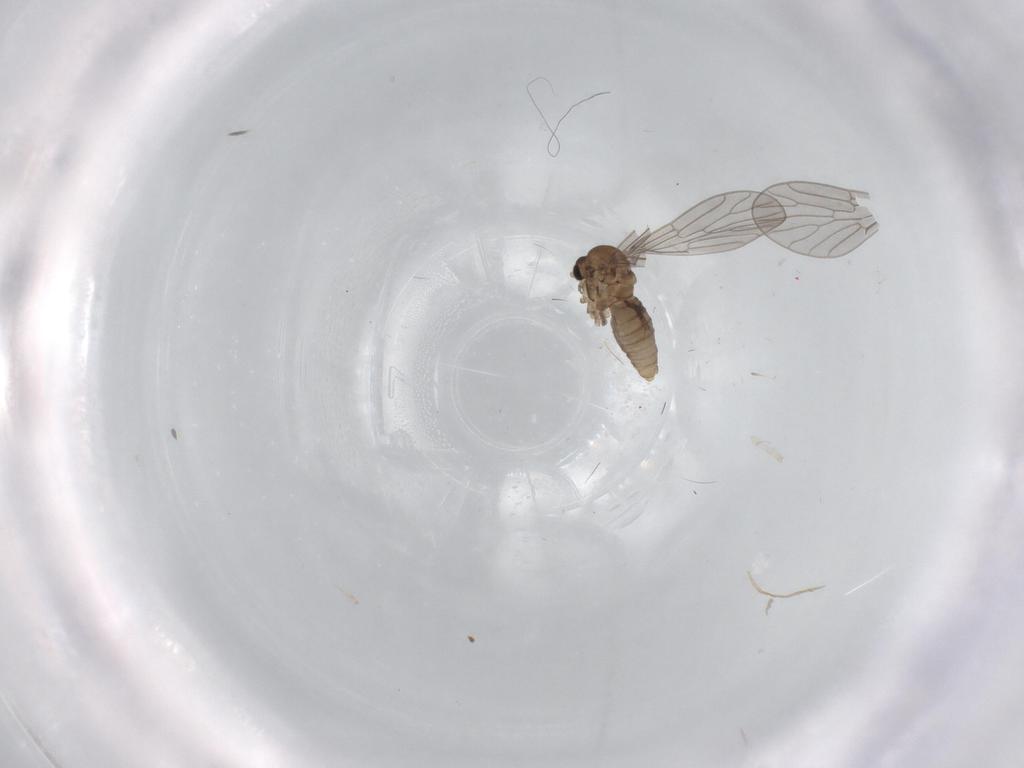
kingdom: Animalia
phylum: Arthropoda
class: Insecta
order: Diptera
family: Psychodidae
